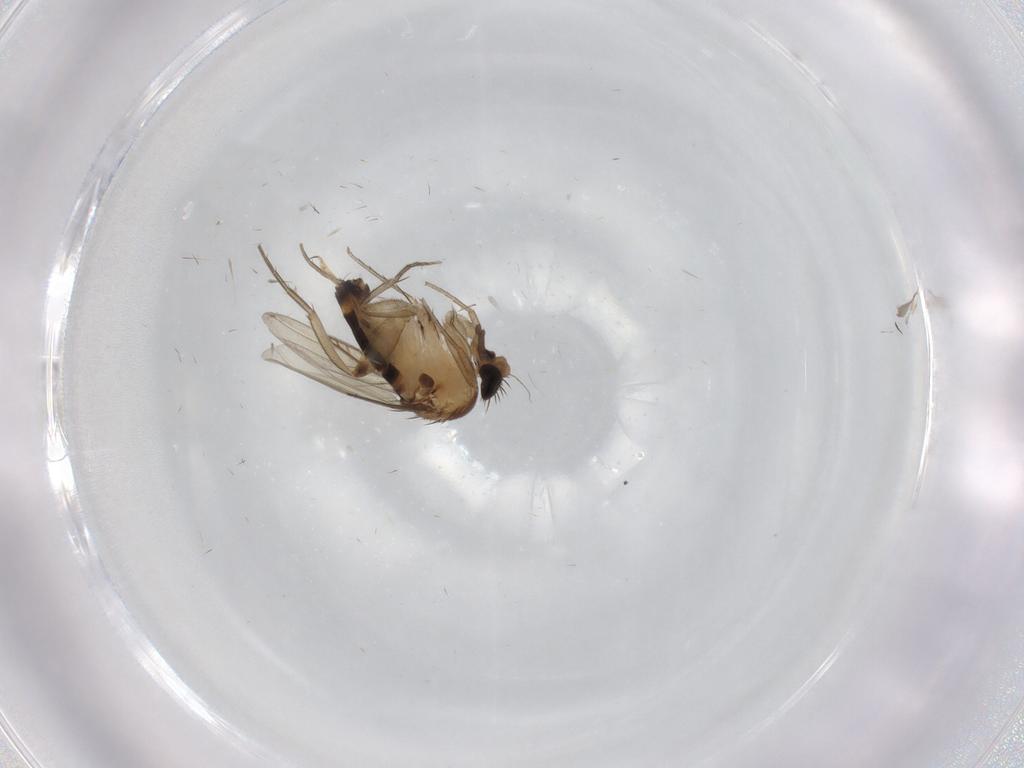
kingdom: Animalia
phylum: Arthropoda
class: Insecta
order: Diptera
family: Phoridae
